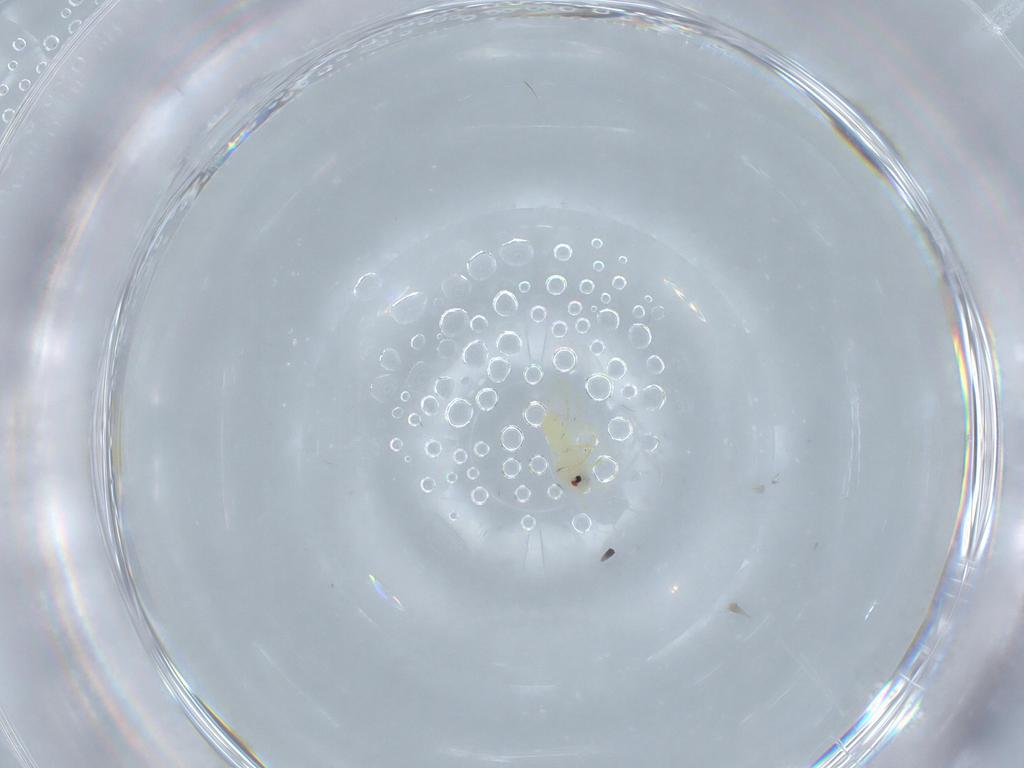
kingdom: Animalia
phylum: Arthropoda
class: Insecta
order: Hemiptera
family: Aleyrodidae
